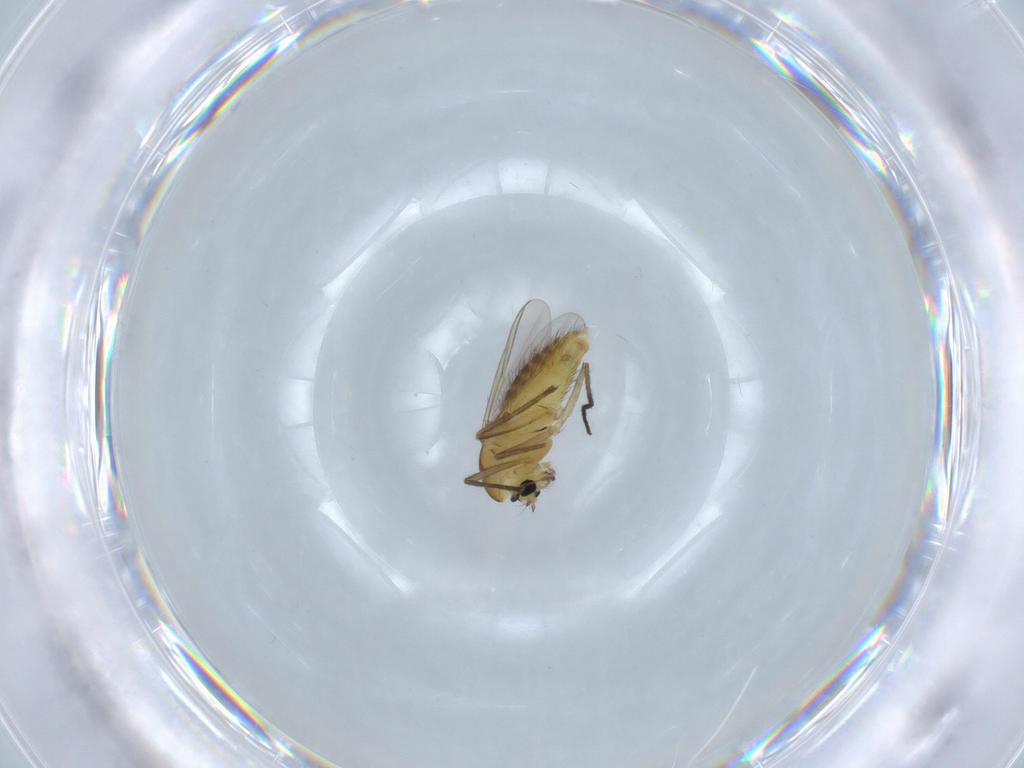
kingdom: Animalia
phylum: Arthropoda
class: Insecta
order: Diptera
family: Chironomidae
